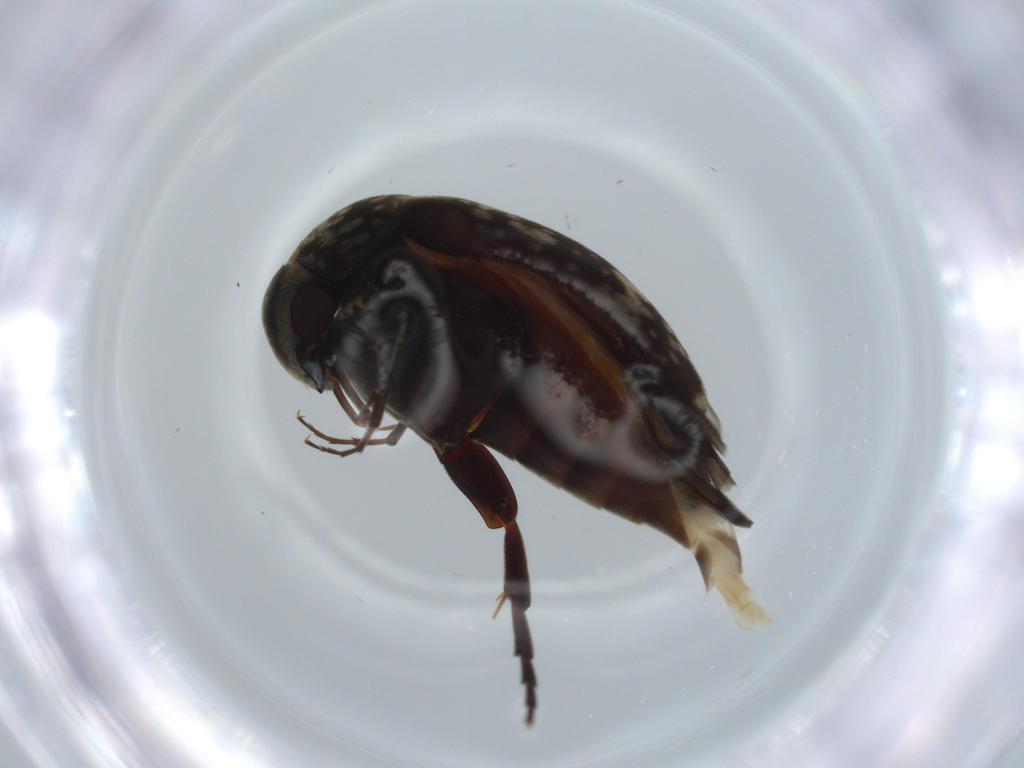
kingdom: Animalia
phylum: Arthropoda
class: Insecta
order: Coleoptera
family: Coccinellidae
